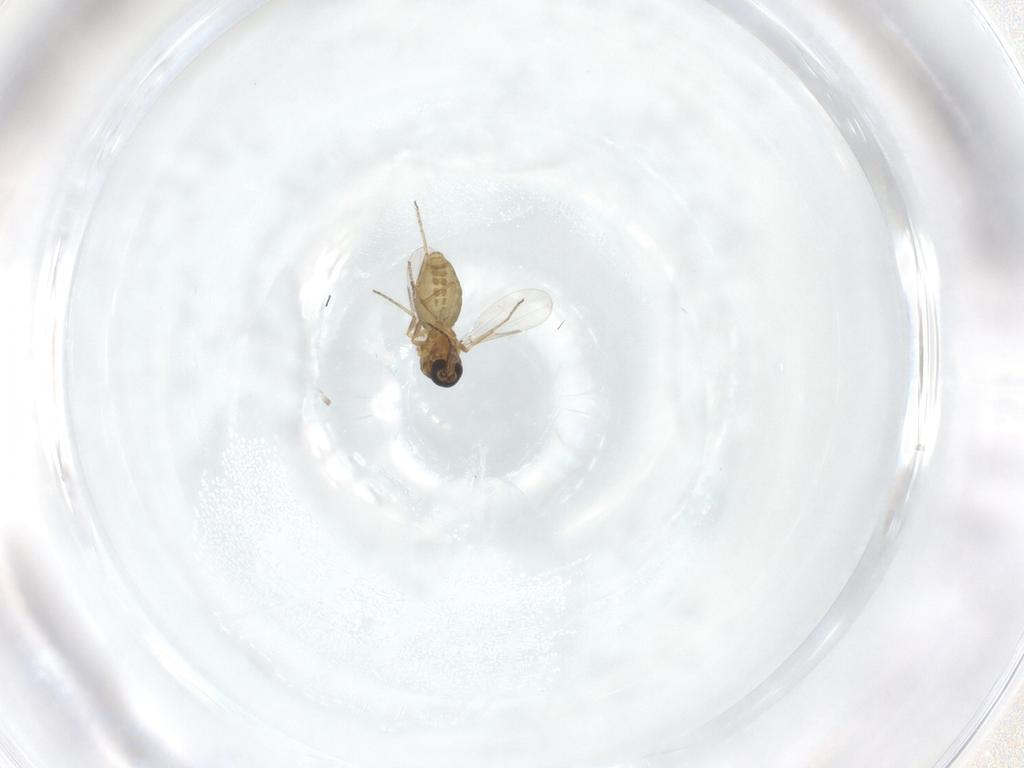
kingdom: Animalia
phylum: Arthropoda
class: Insecta
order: Diptera
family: Ceratopogonidae
